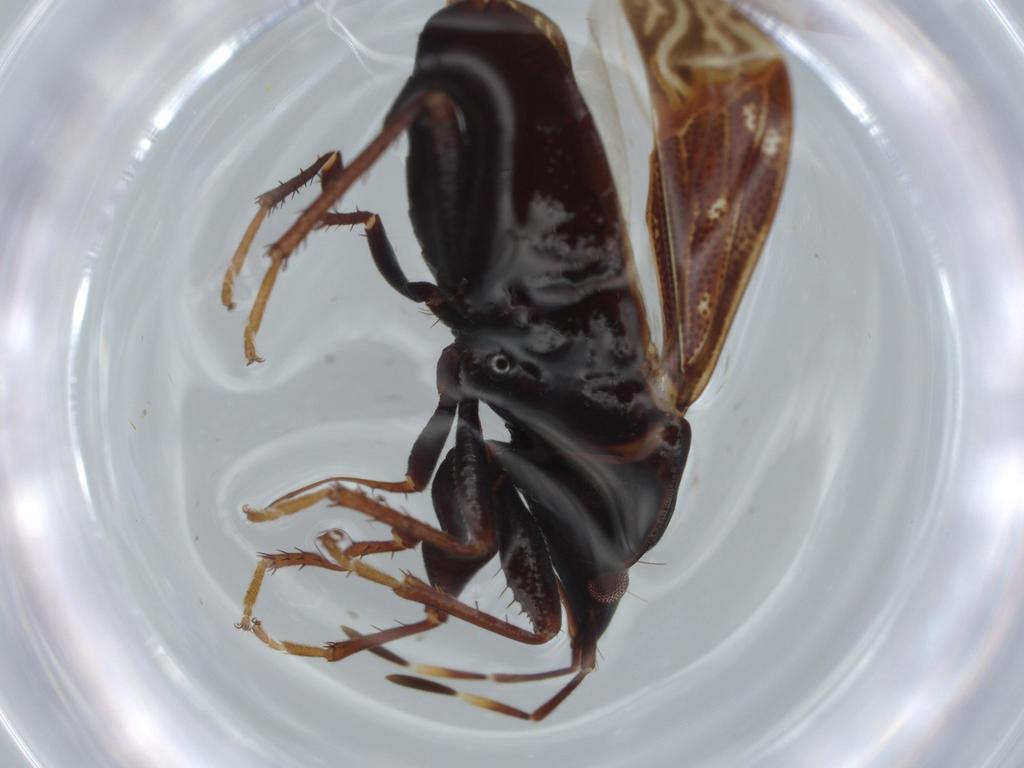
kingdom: Animalia
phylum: Arthropoda
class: Insecta
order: Hemiptera
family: Rhyparochromidae
